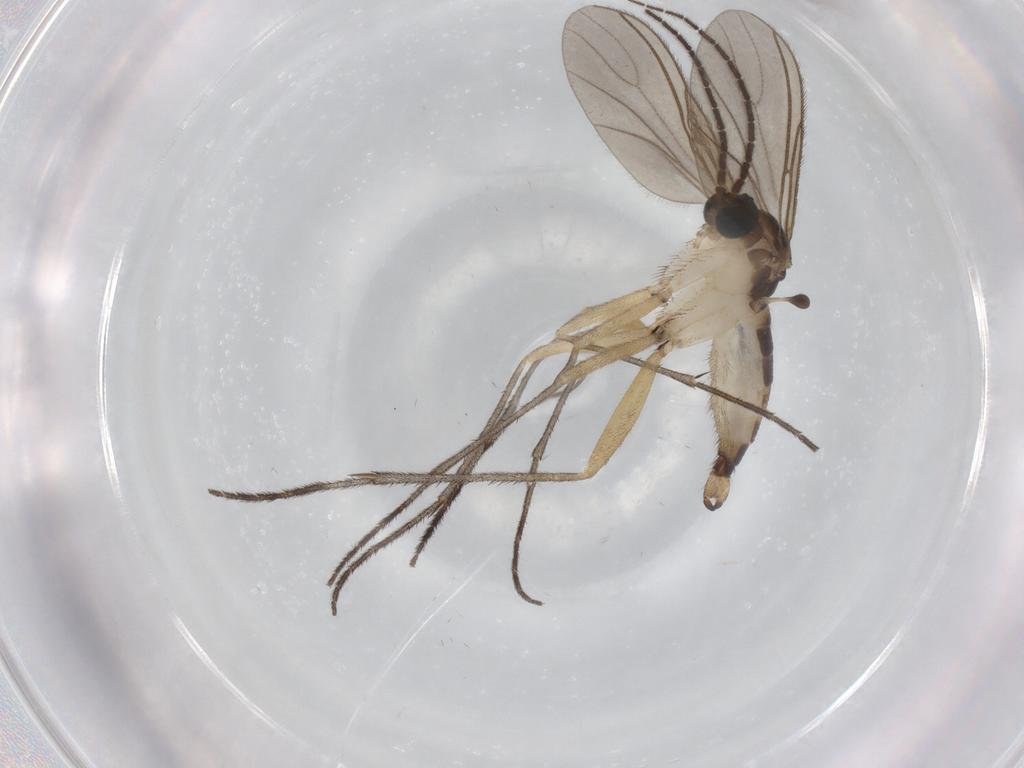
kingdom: Animalia
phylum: Arthropoda
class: Insecta
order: Diptera
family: Sciaridae
